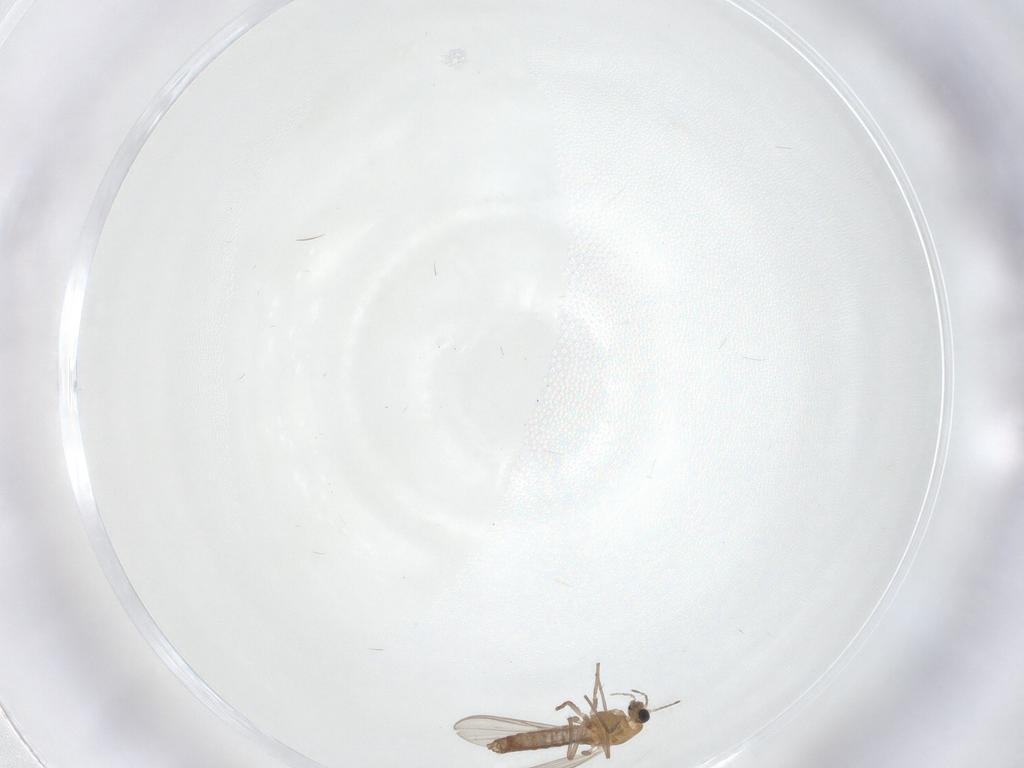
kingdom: Animalia
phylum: Arthropoda
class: Insecta
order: Diptera
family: Chironomidae
